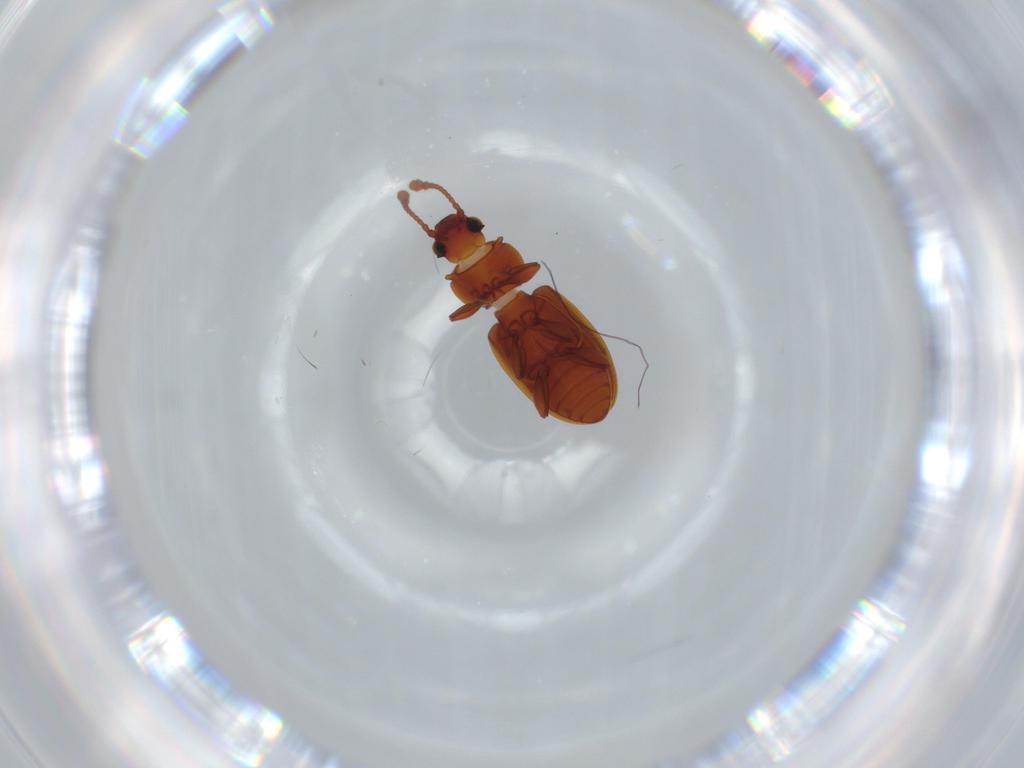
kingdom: Animalia
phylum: Arthropoda
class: Insecta
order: Coleoptera
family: Silvanidae
